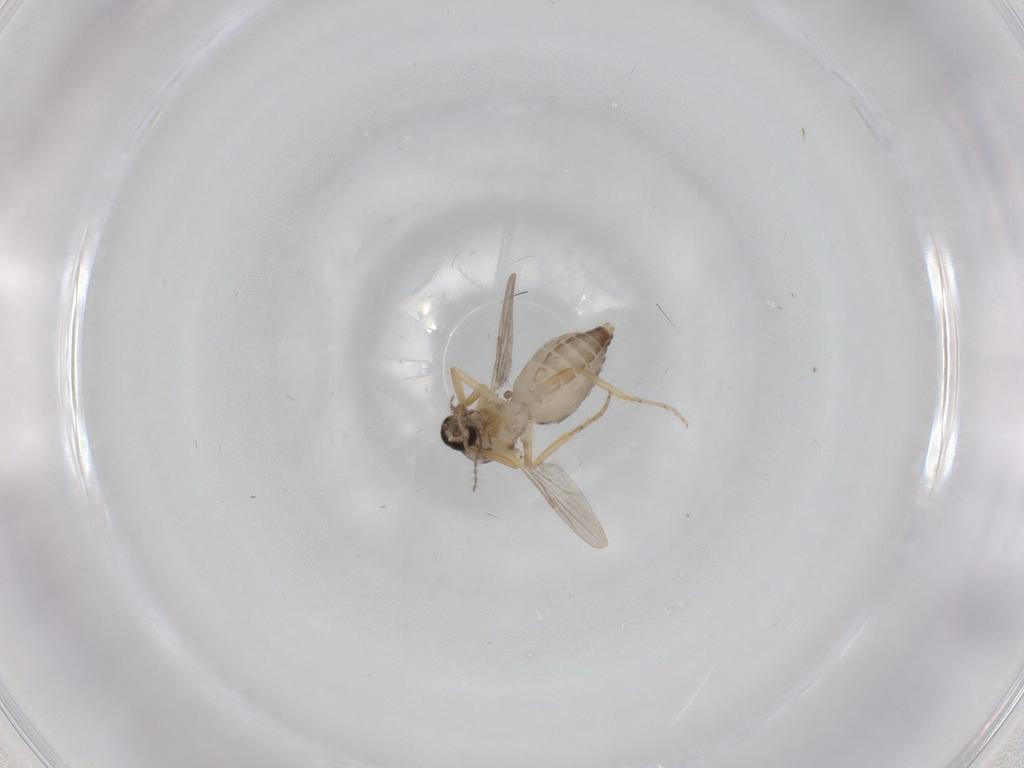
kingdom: Animalia
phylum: Arthropoda
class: Insecta
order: Diptera
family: Ceratopogonidae
